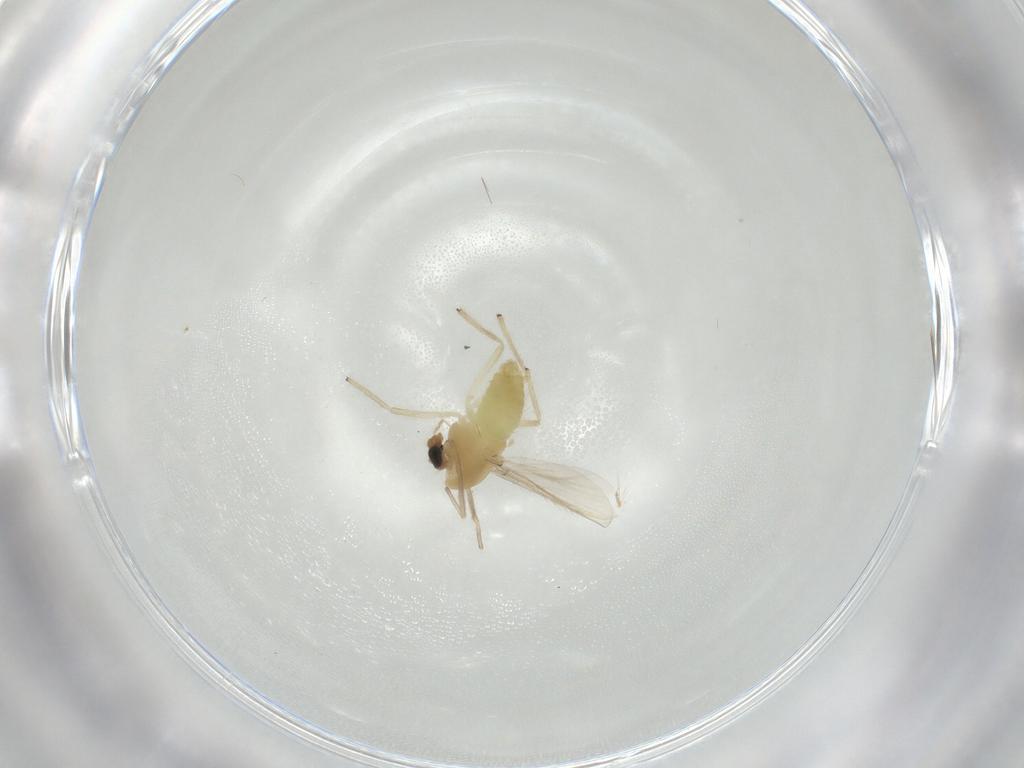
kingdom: Animalia
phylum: Arthropoda
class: Insecta
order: Diptera
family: Chironomidae
